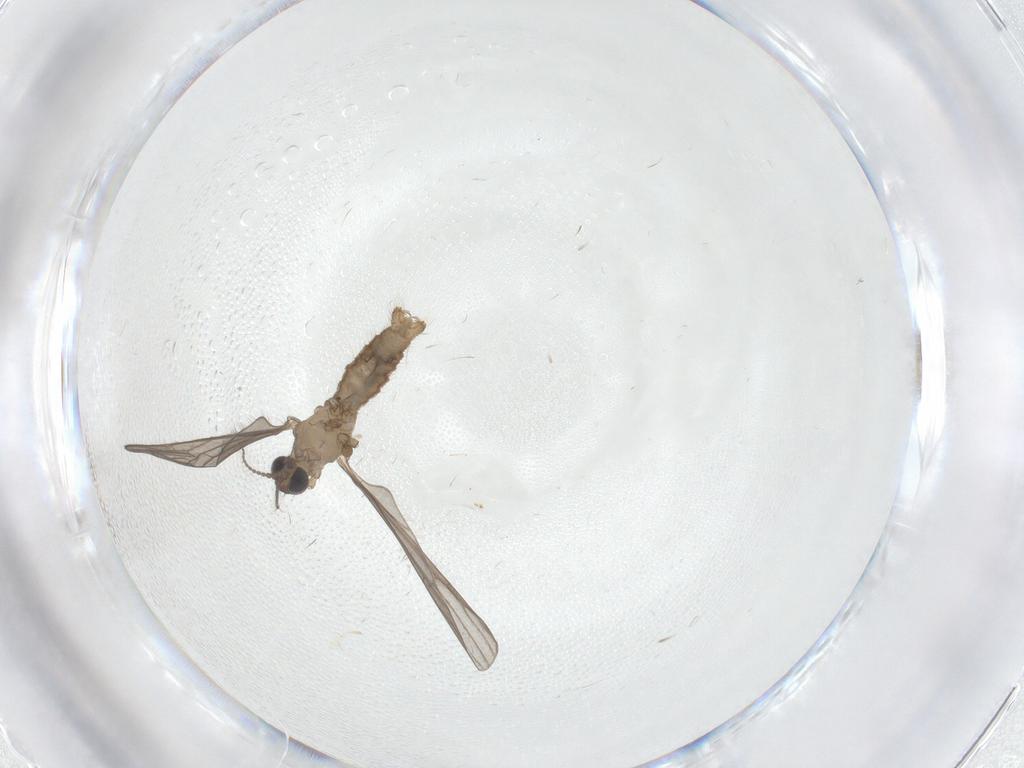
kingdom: Animalia
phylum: Arthropoda
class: Insecta
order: Diptera
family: Limoniidae
